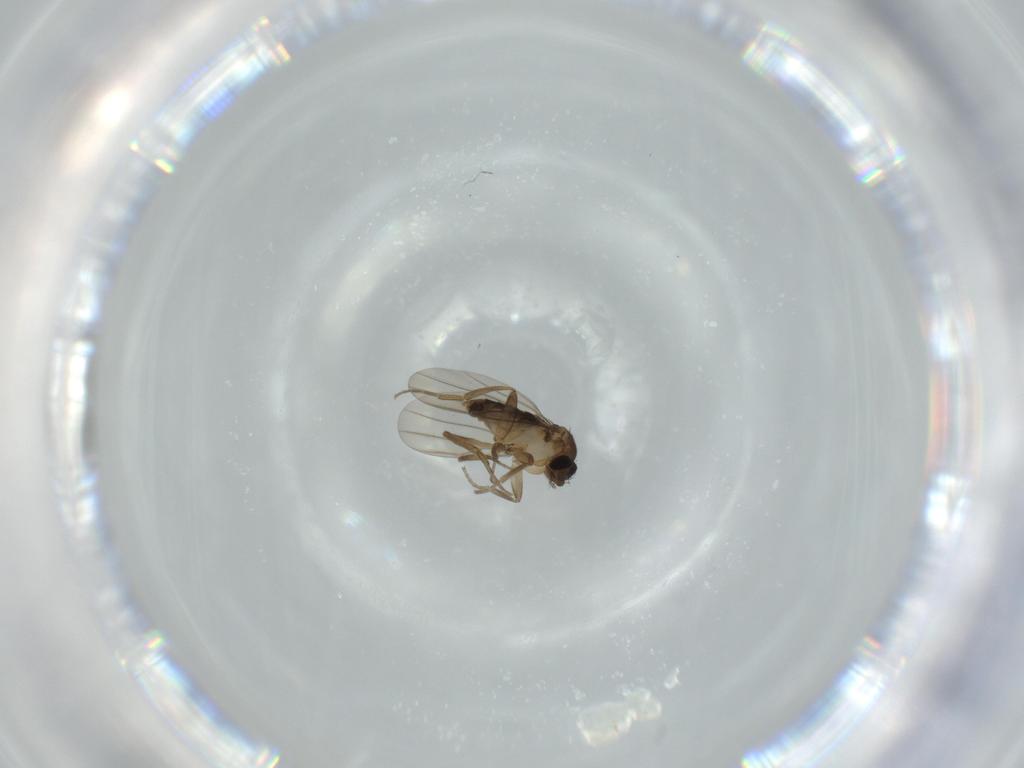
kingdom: Animalia
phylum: Arthropoda
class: Insecta
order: Diptera
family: Phoridae
